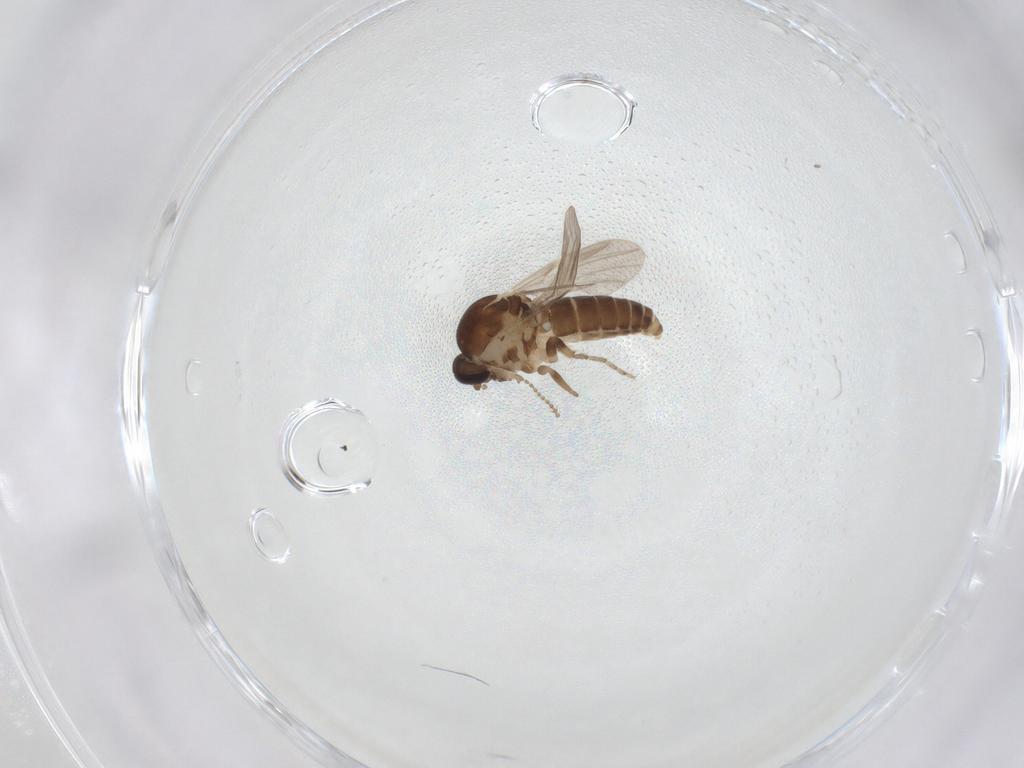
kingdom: Animalia
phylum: Arthropoda
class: Insecta
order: Diptera
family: Ceratopogonidae
